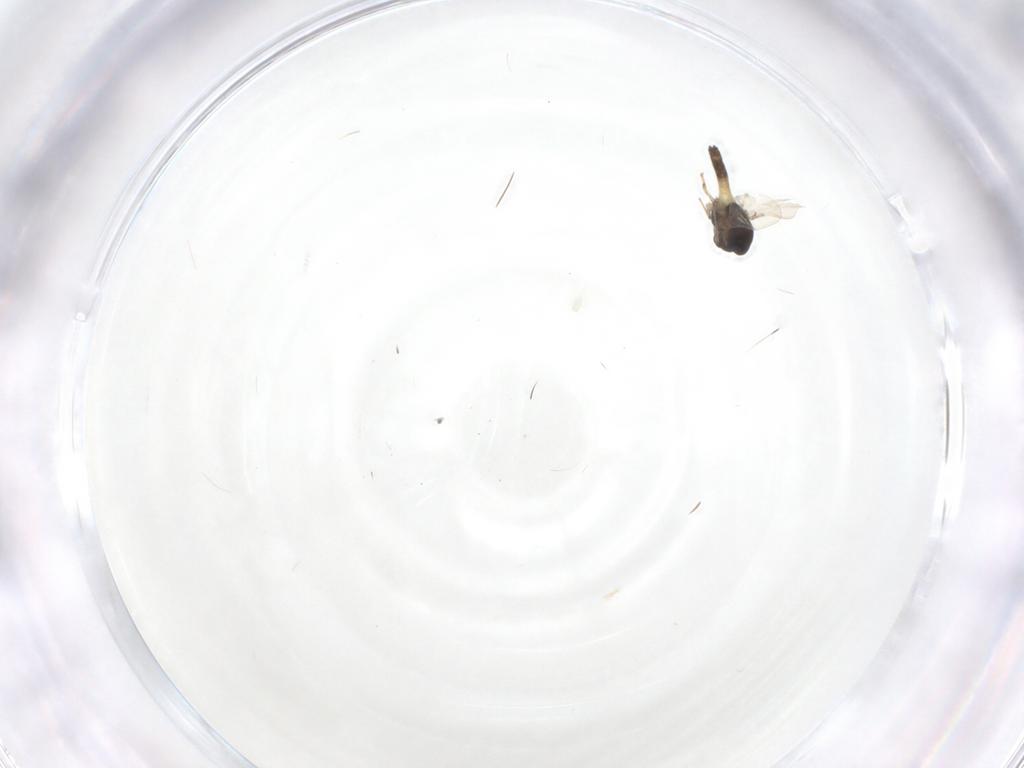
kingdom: Animalia
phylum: Arthropoda
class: Insecta
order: Diptera
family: Chironomidae
